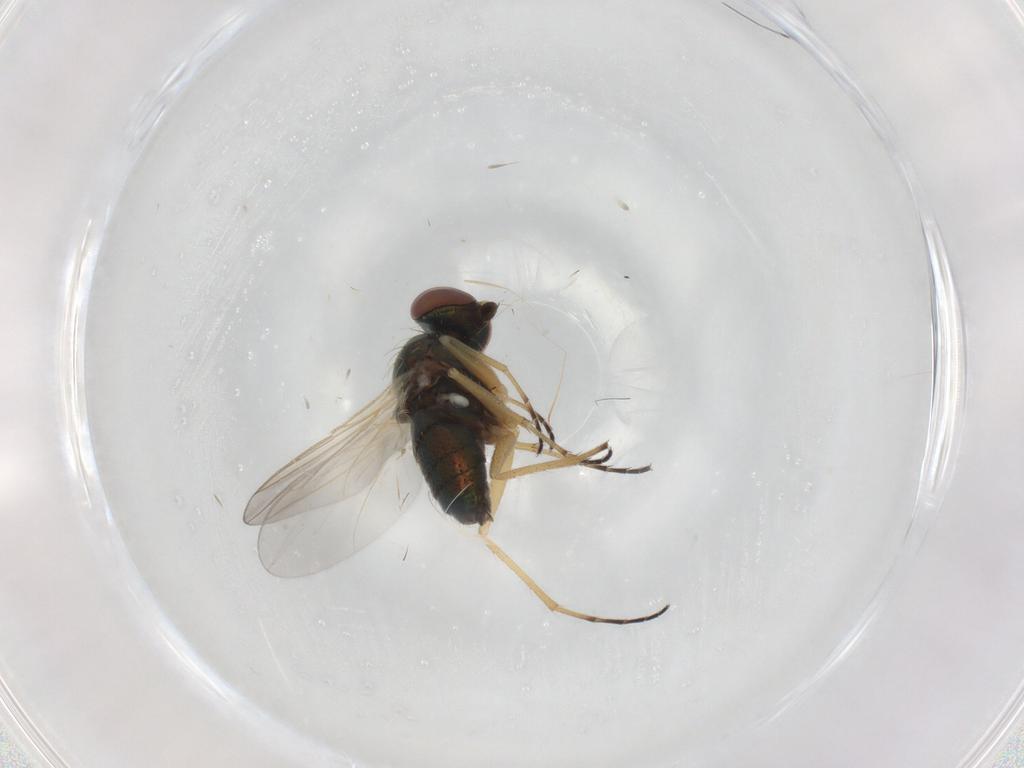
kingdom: Animalia
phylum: Arthropoda
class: Insecta
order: Diptera
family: Dolichopodidae
